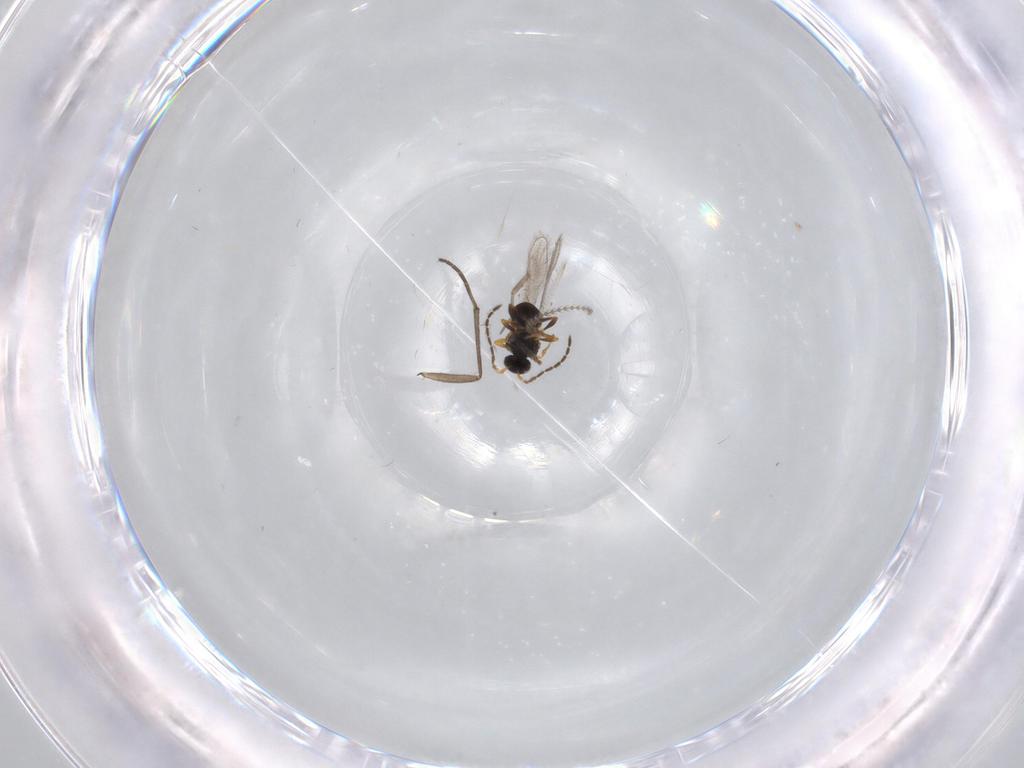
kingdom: Animalia
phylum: Arthropoda
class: Insecta
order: Hymenoptera
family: Platygastridae
